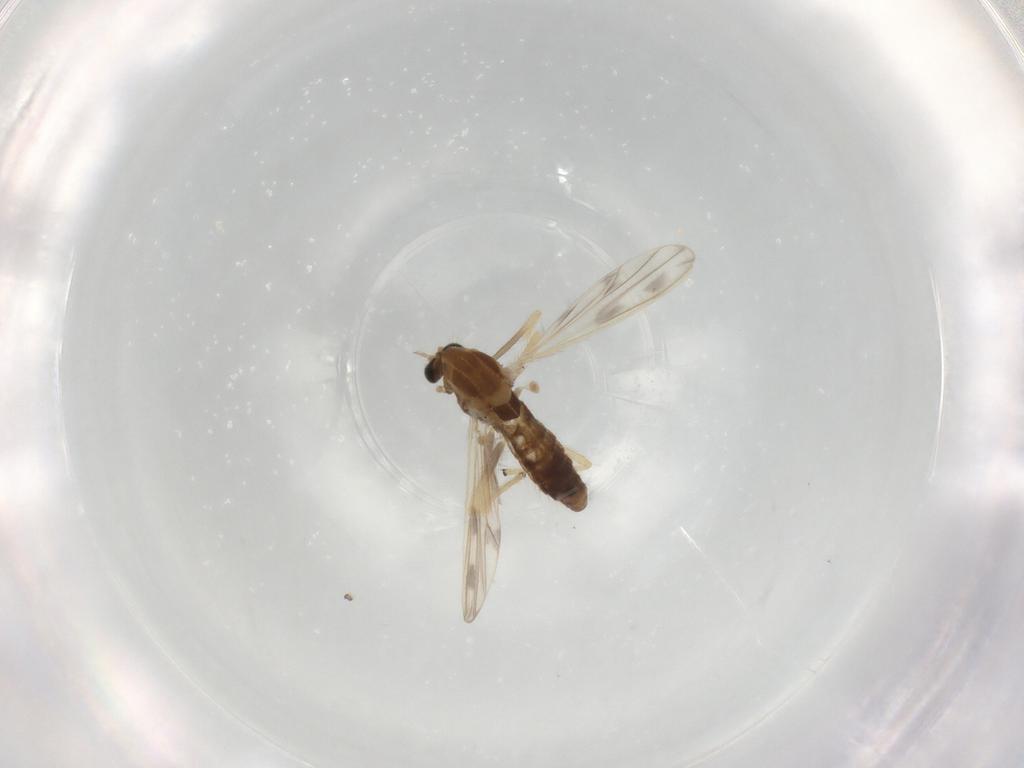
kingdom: Animalia
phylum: Arthropoda
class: Insecta
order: Diptera
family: Chironomidae
